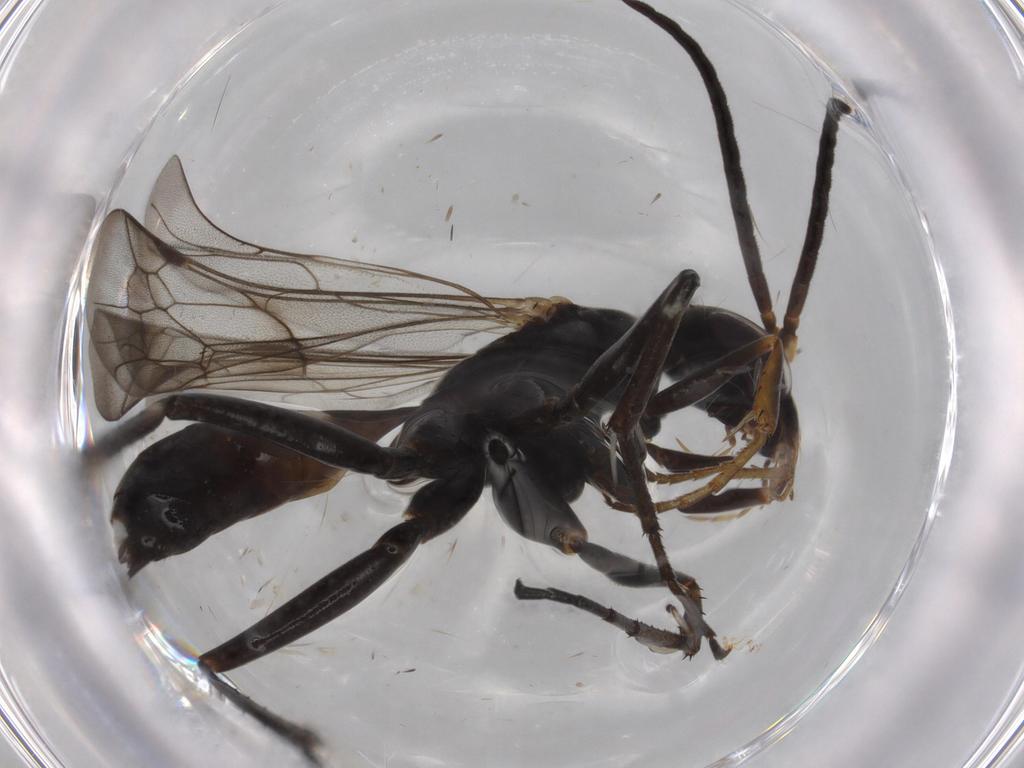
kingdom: Animalia
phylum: Arthropoda
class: Insecta
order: Hymenoptera
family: Pompilidae
